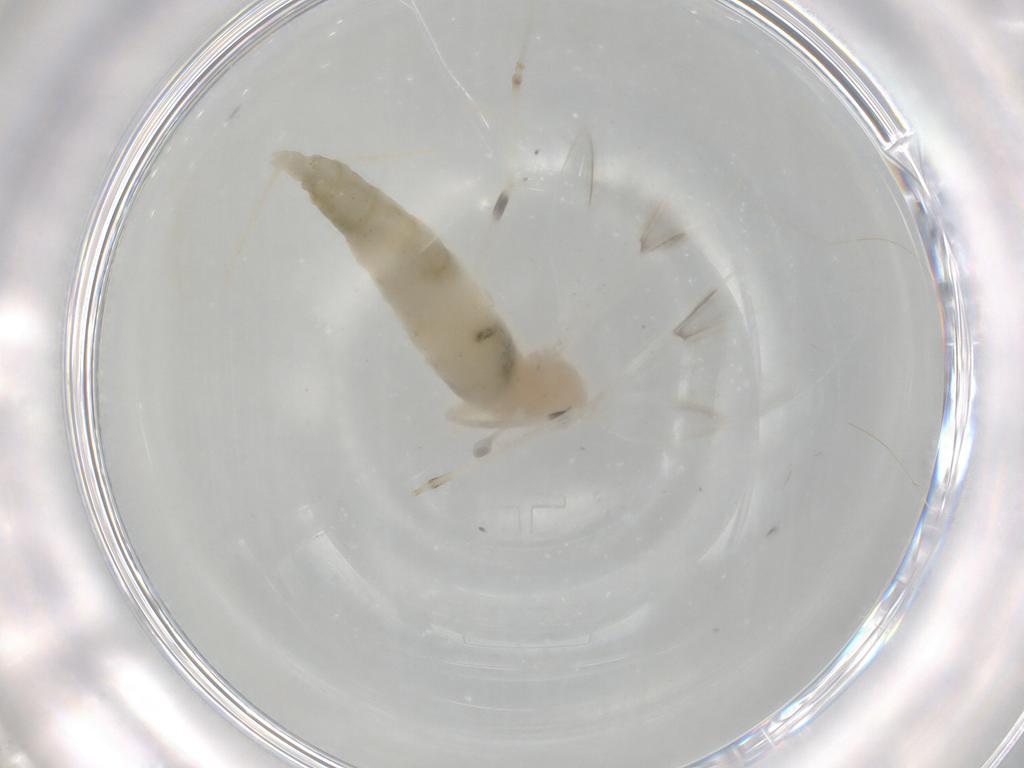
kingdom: Animalia
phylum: Arthropoda
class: Insecta
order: Diptera
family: Cecidomyiidae
